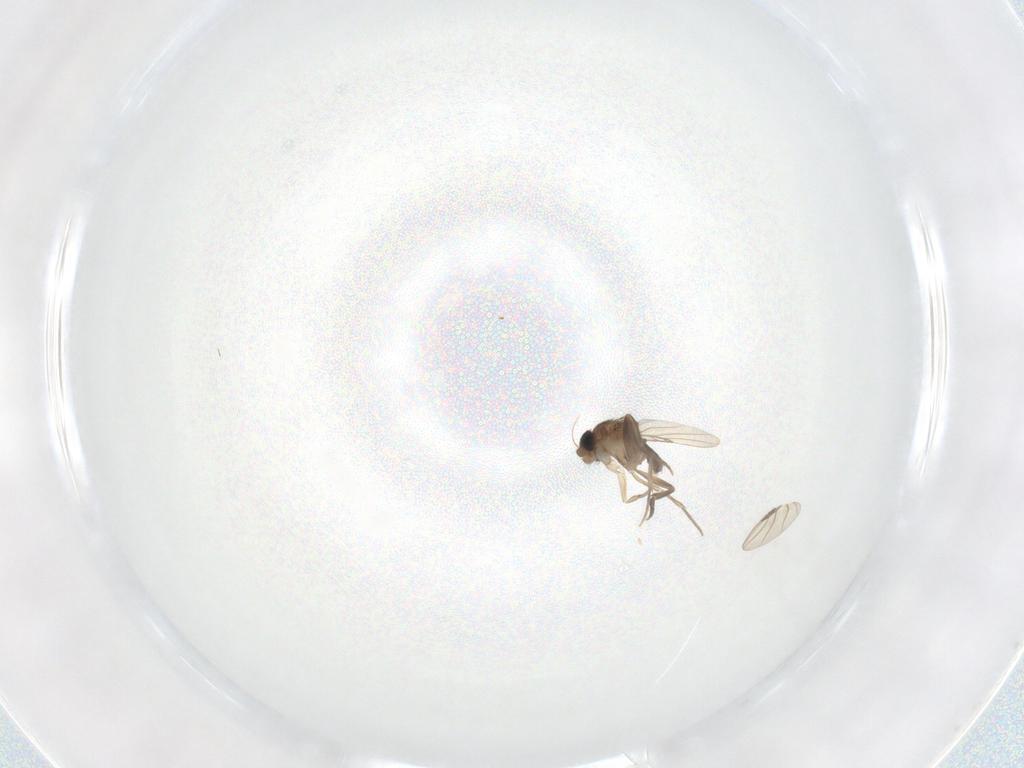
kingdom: Animalia
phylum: Arthropoda
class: Insecta
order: Diptera
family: Phoridae
